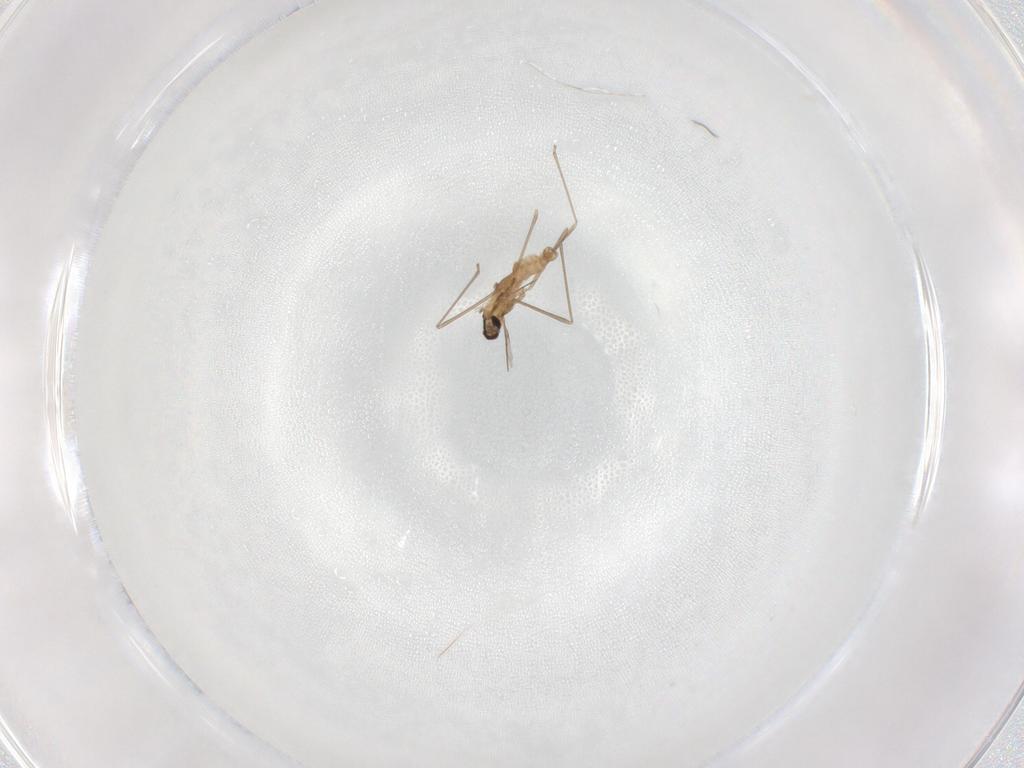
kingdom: Animalia
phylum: Arthropoda
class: Insecta
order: Diptera
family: Cecidomyiidae
